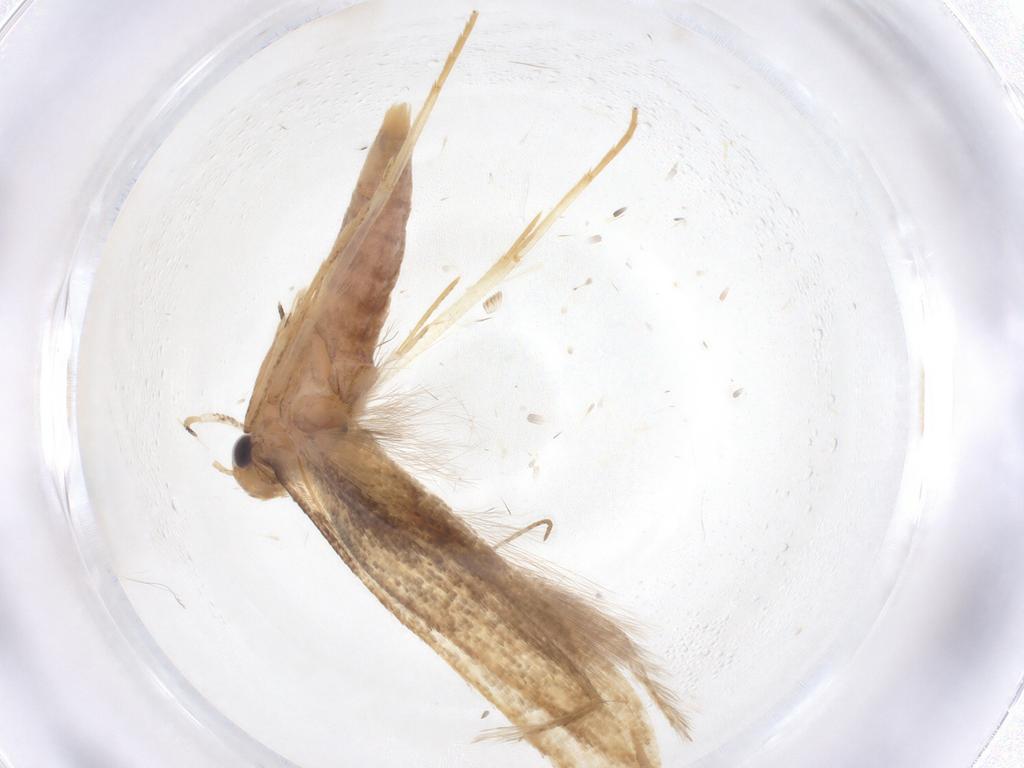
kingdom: Animalia
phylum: Arthropoda
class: Insecta
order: Lepidoptera
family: Gelechiidae
